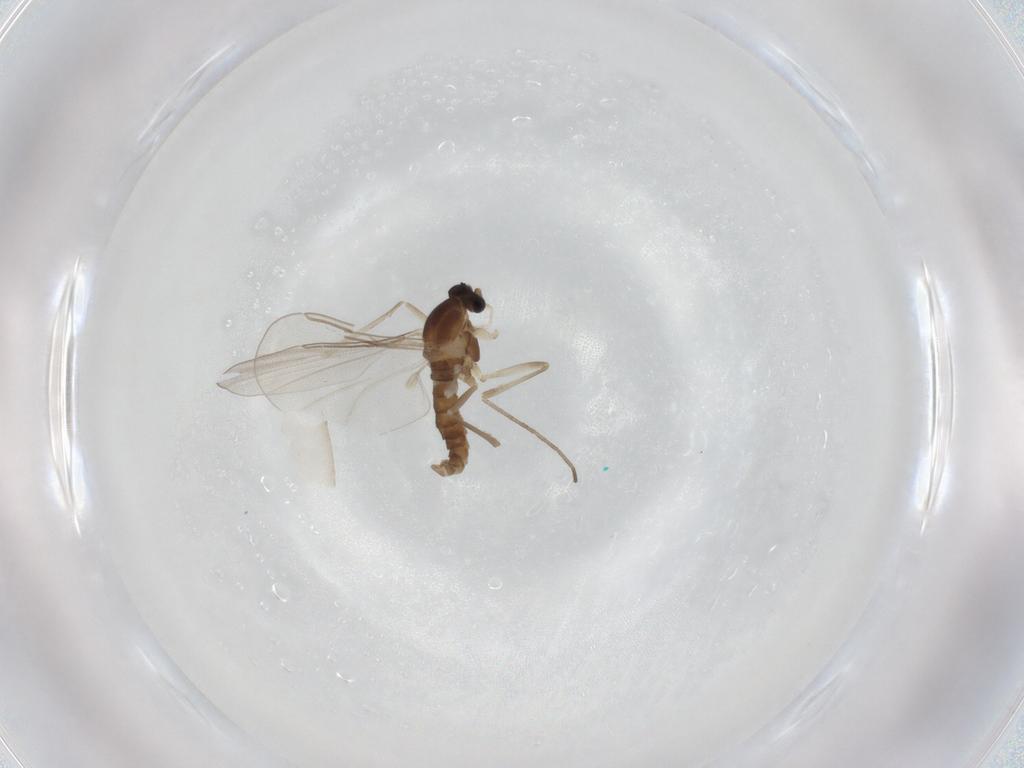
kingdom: Animalia
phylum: Arthropoda
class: Insecta
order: Diptera
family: Cecidomyiidae
